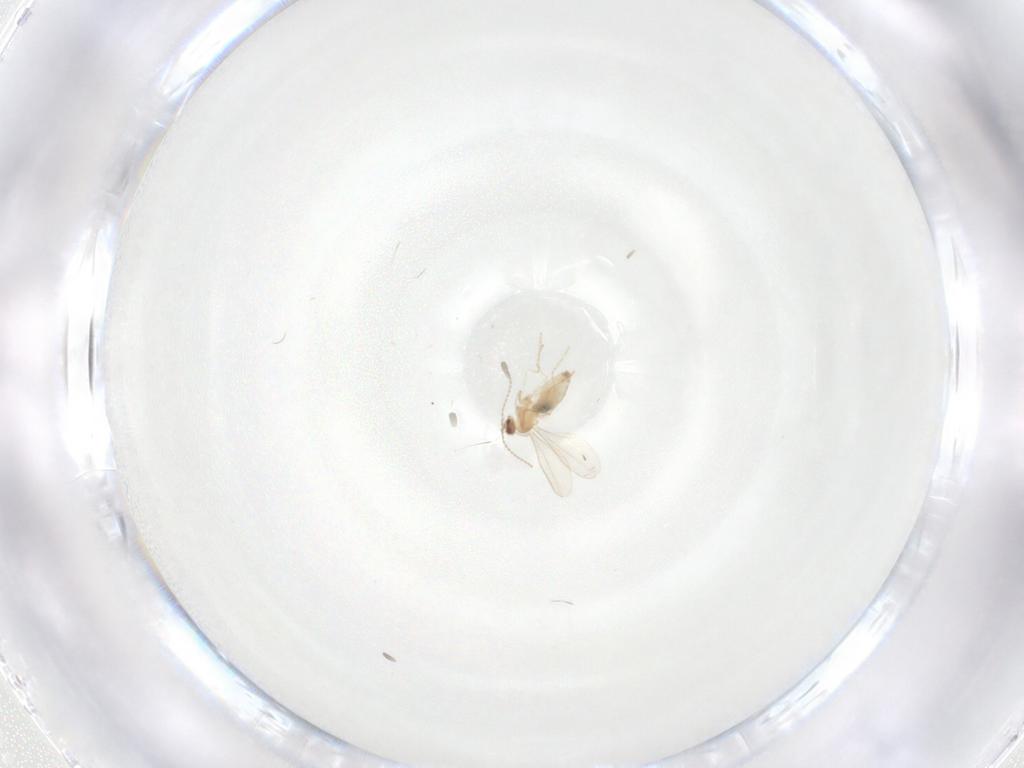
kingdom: Animalia
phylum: Arthropoda
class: Insecta
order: Diptera
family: Cecidomyiidae
